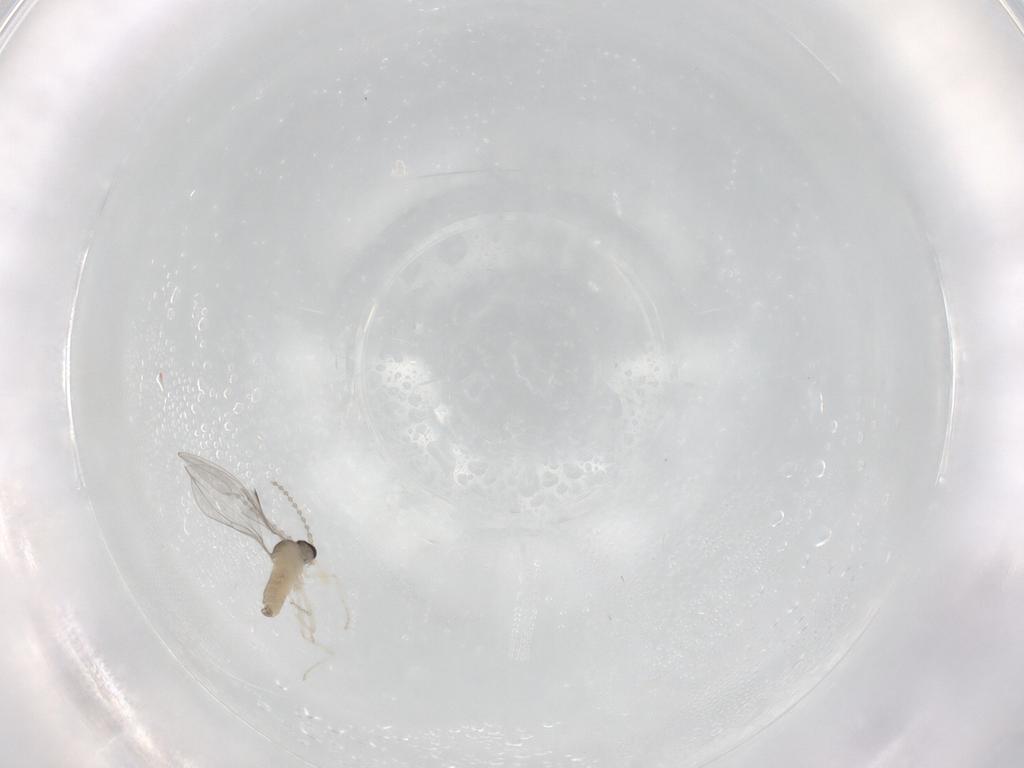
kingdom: Animalia
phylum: Arthropoda
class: Insecta
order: Diptera
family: Cecidomyiidae
